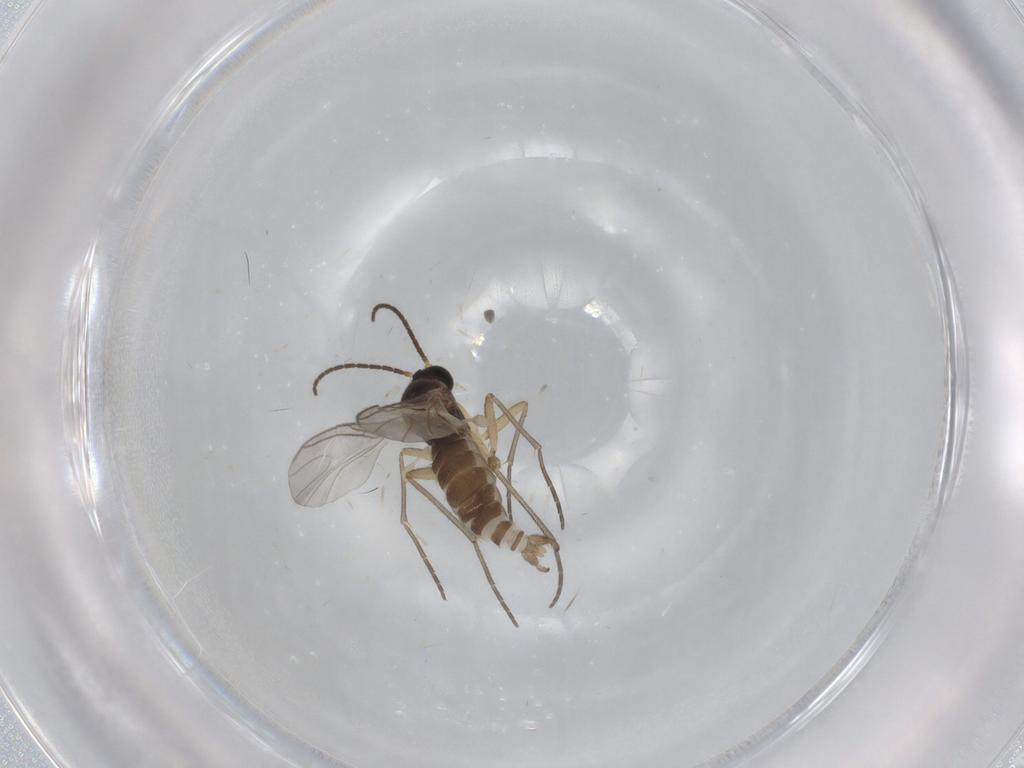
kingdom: Animalia
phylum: Arthropoda
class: Insecta
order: Diptera
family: Sciaridae
